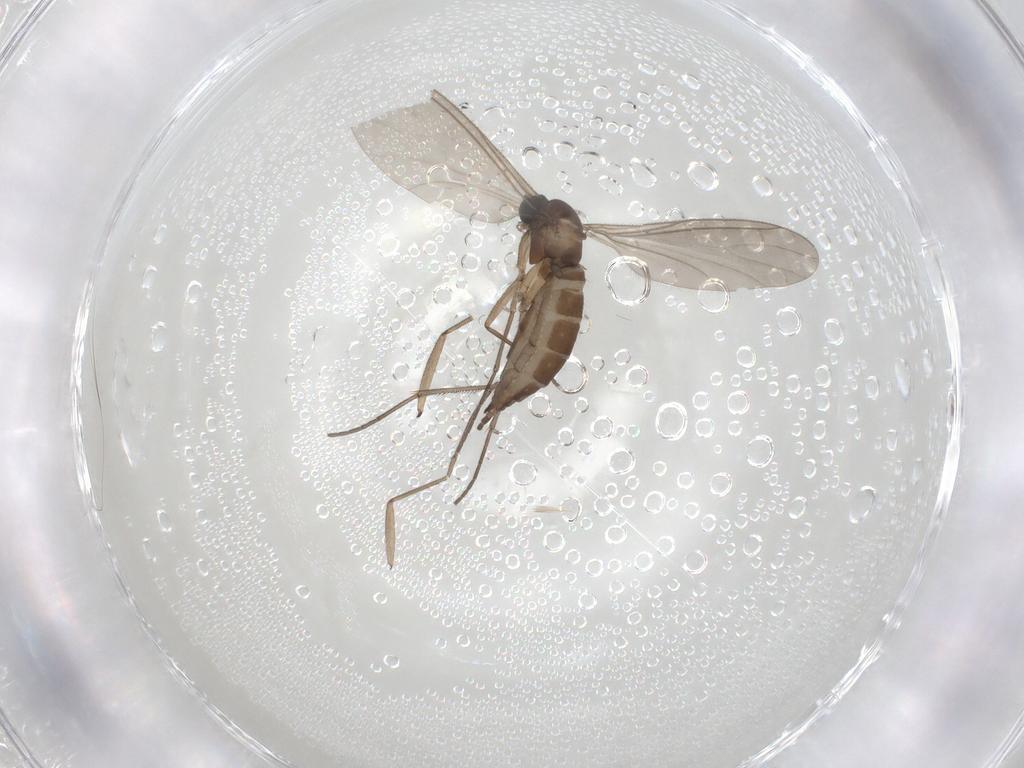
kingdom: Animalia
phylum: Arthropoda
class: Insecta
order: Diptera
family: Sciaridae
